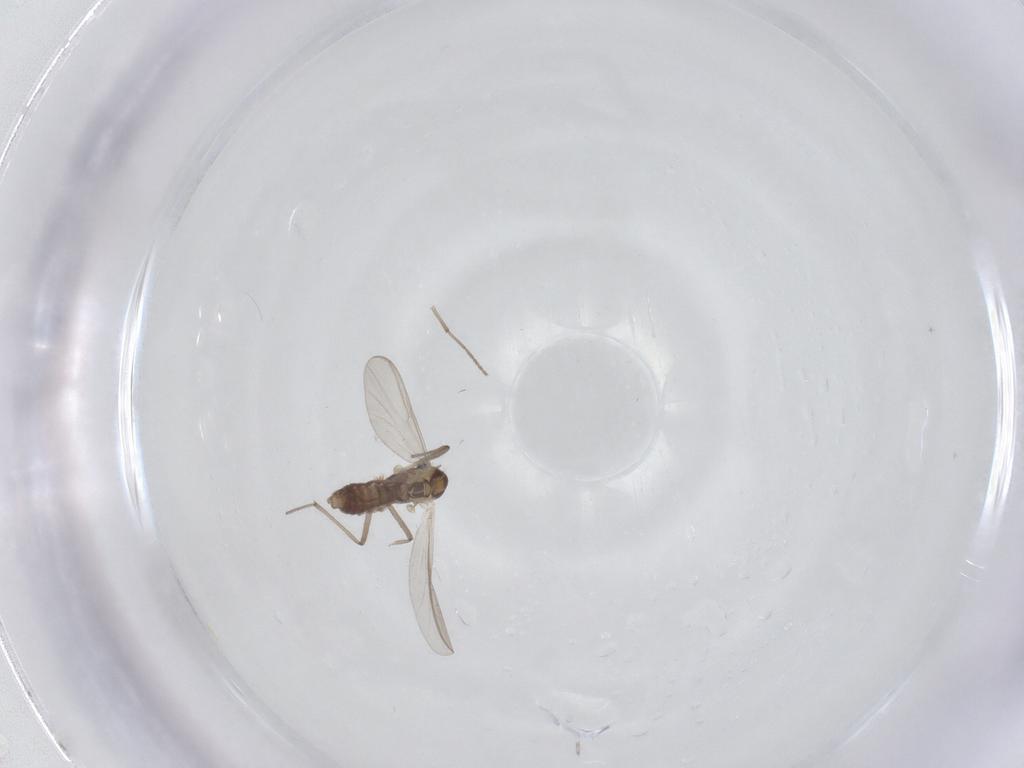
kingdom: Animalia
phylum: Arthropoda
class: Insecta
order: Diptera
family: Chironomidae
